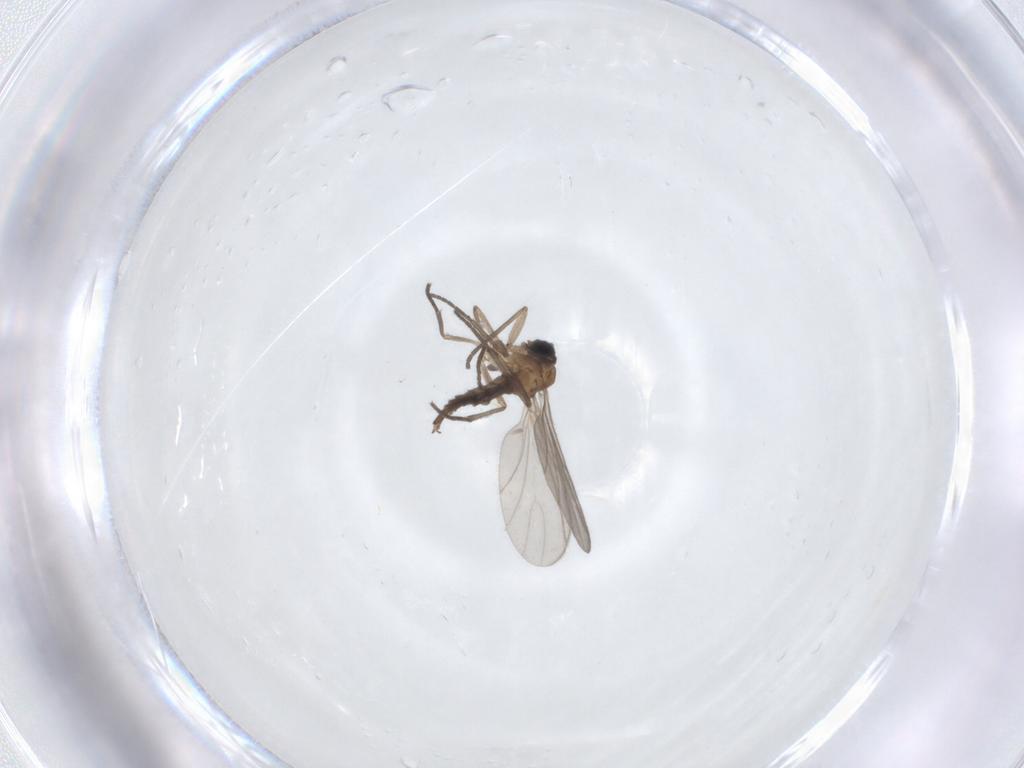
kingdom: Animalia
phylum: Arthropoda
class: Insecta
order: Diptera
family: Sciaridae
